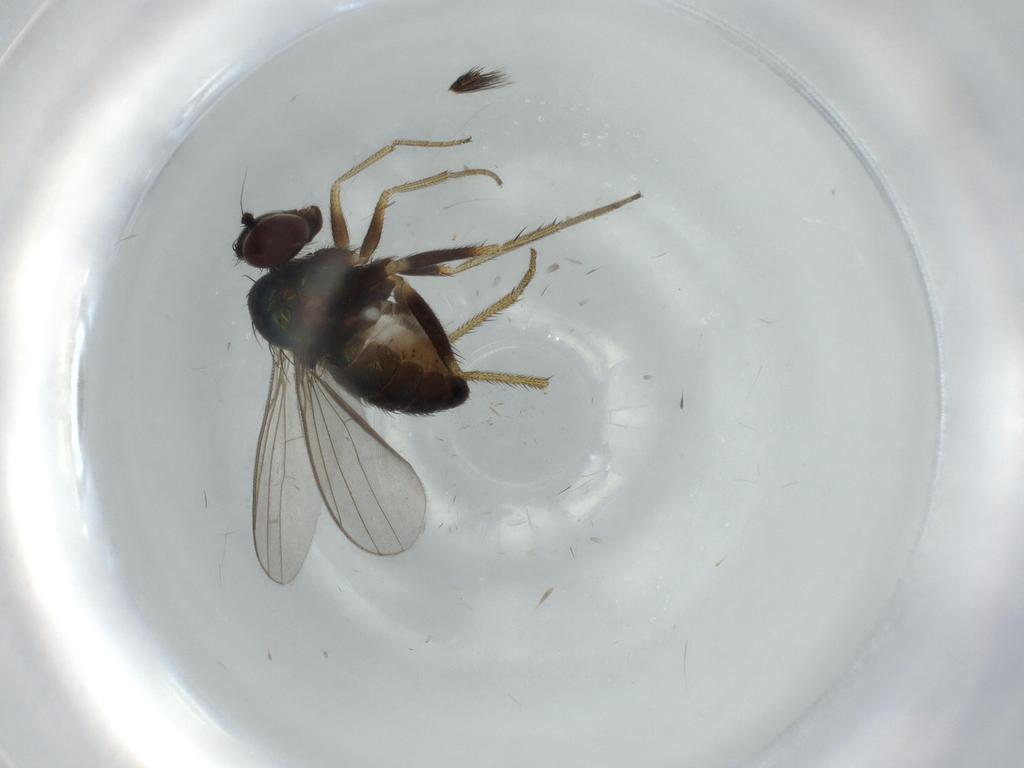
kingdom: Animalia
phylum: Arthropoda
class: Insecta
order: Diptera
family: Dolichopodidae
